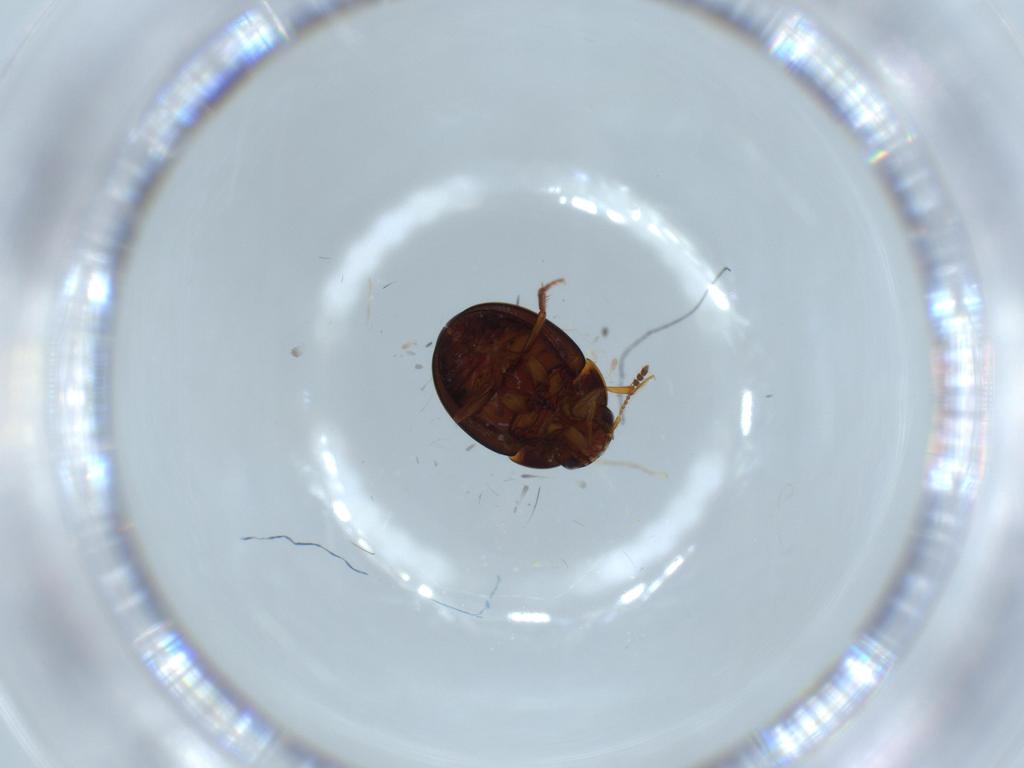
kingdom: Animalia
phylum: Arthropoda
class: Insecta
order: Coleoptera
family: Leiodidae
